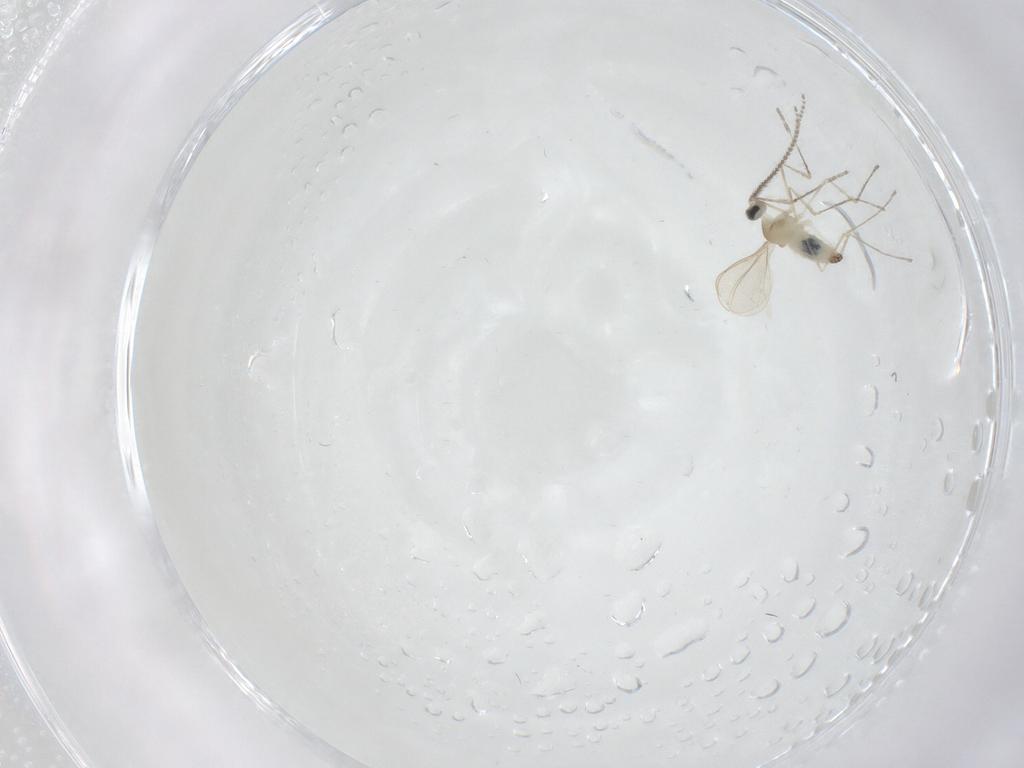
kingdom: Animalia
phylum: Arthropoda
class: Insecta
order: Diptera
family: Cecidomyiidae
